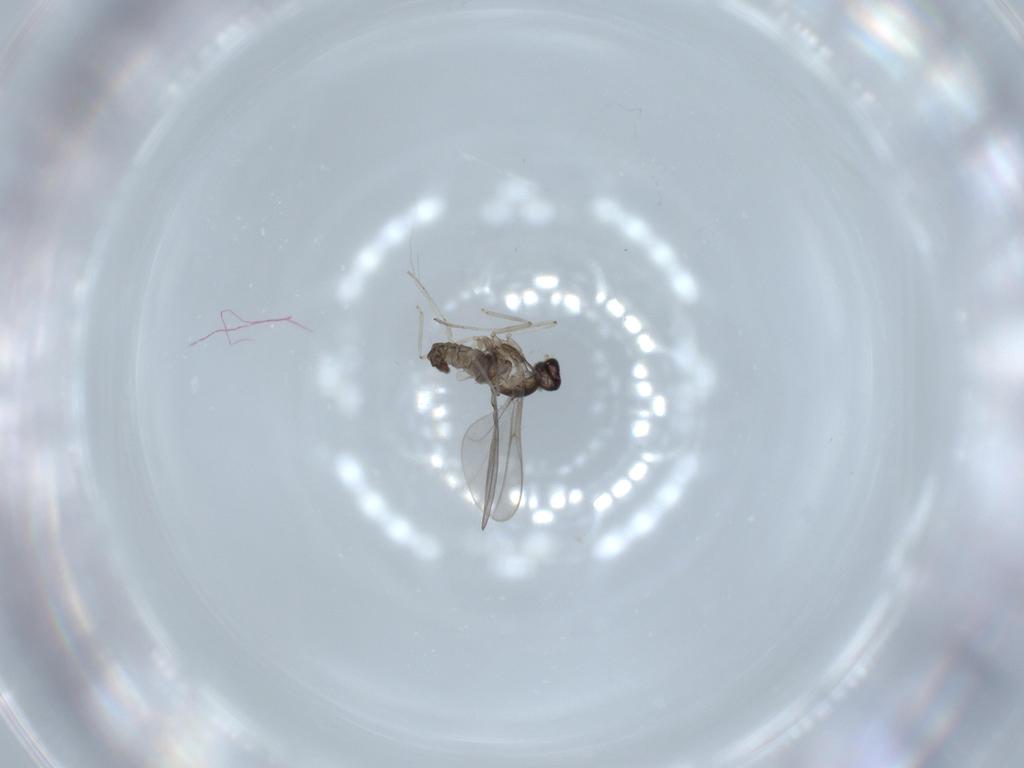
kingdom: Animalia
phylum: Arthropoda
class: Insecta
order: Diptera
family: Cecidomyiidae
